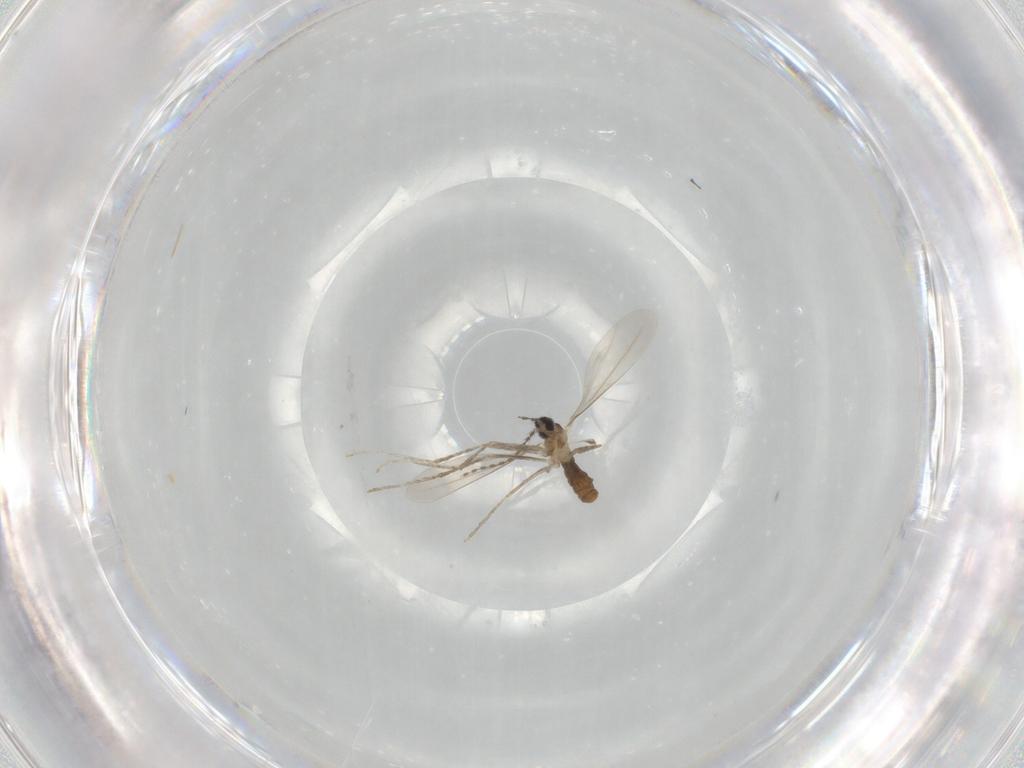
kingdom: Animalia
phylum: Arthropoda
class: Insecta
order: Diptera
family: Cecidomyiidae
